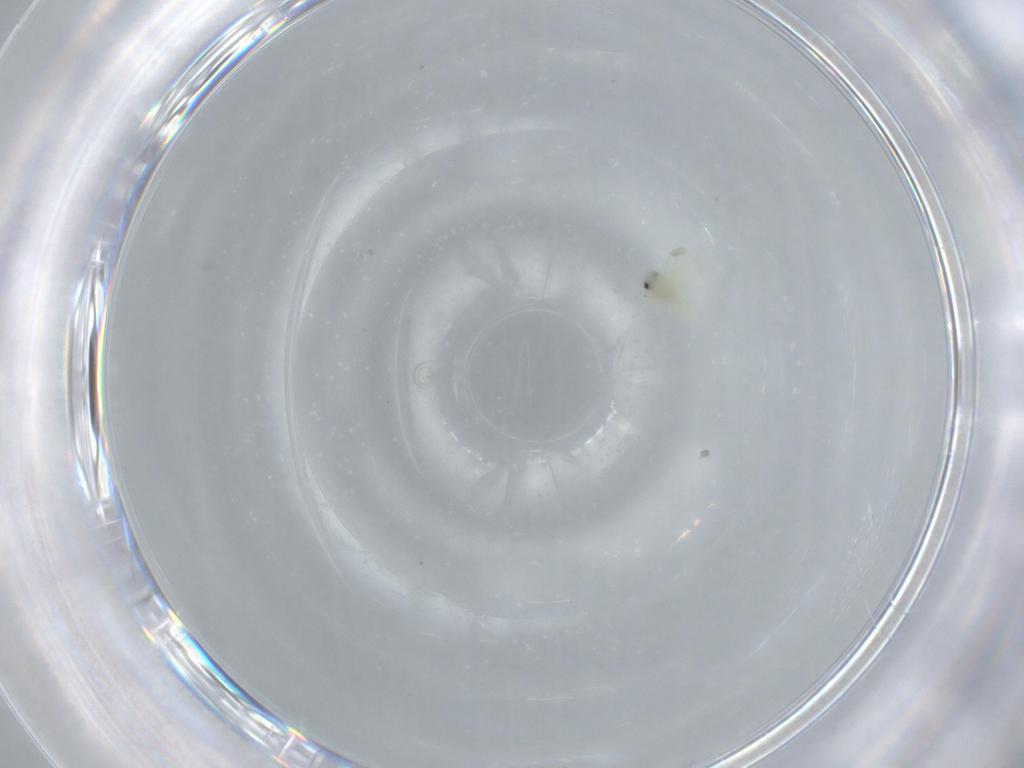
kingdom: Animalia
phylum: Arthropoda
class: Insecta
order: Hemiptera
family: Aleyrodidae
